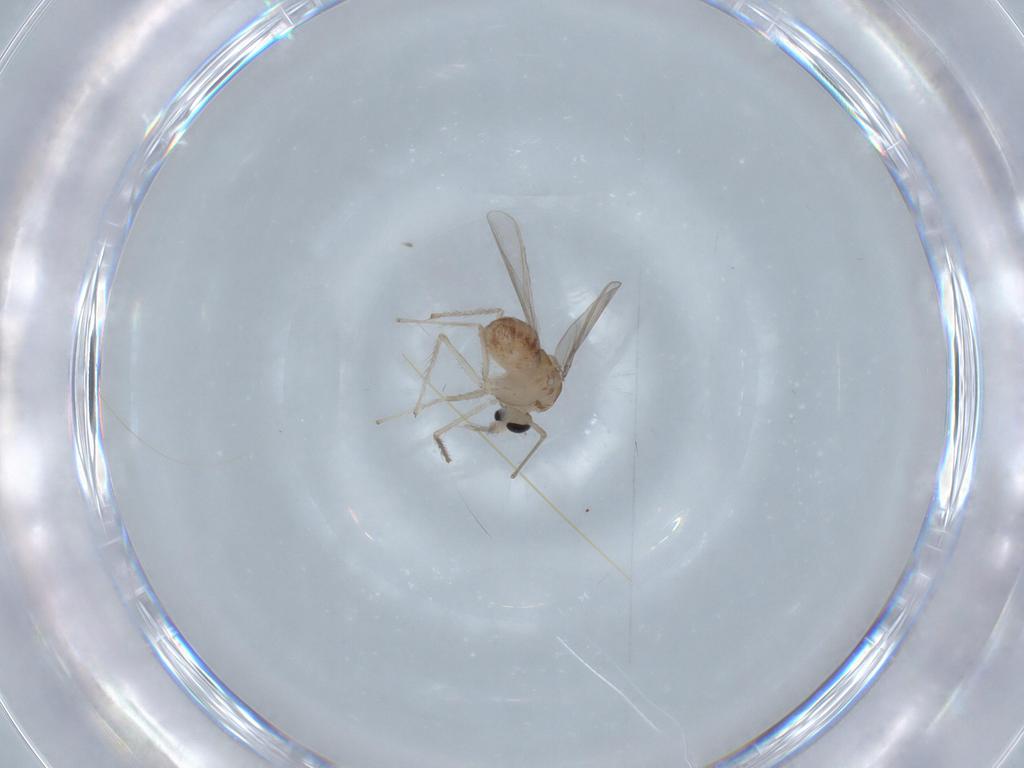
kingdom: Animalia
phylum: Arthropoda
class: Insecta
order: Diptera
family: Chironomidae
